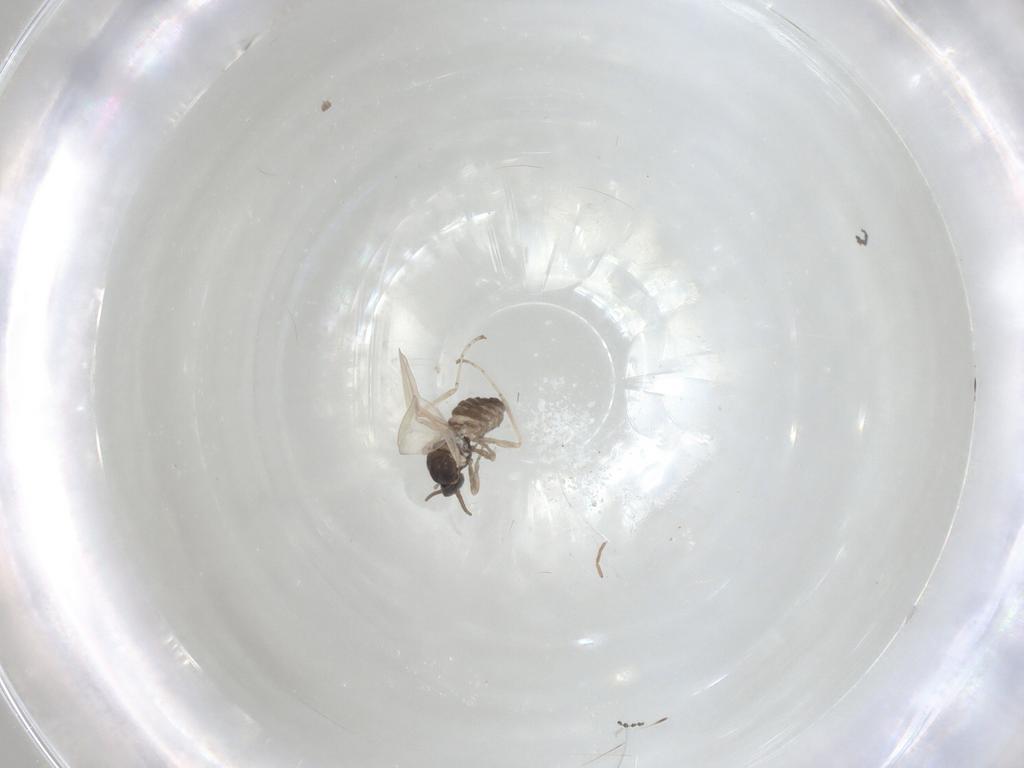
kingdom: Animalia
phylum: Arthropoda
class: Insecta
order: Diptera
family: Cecidomyiidae
